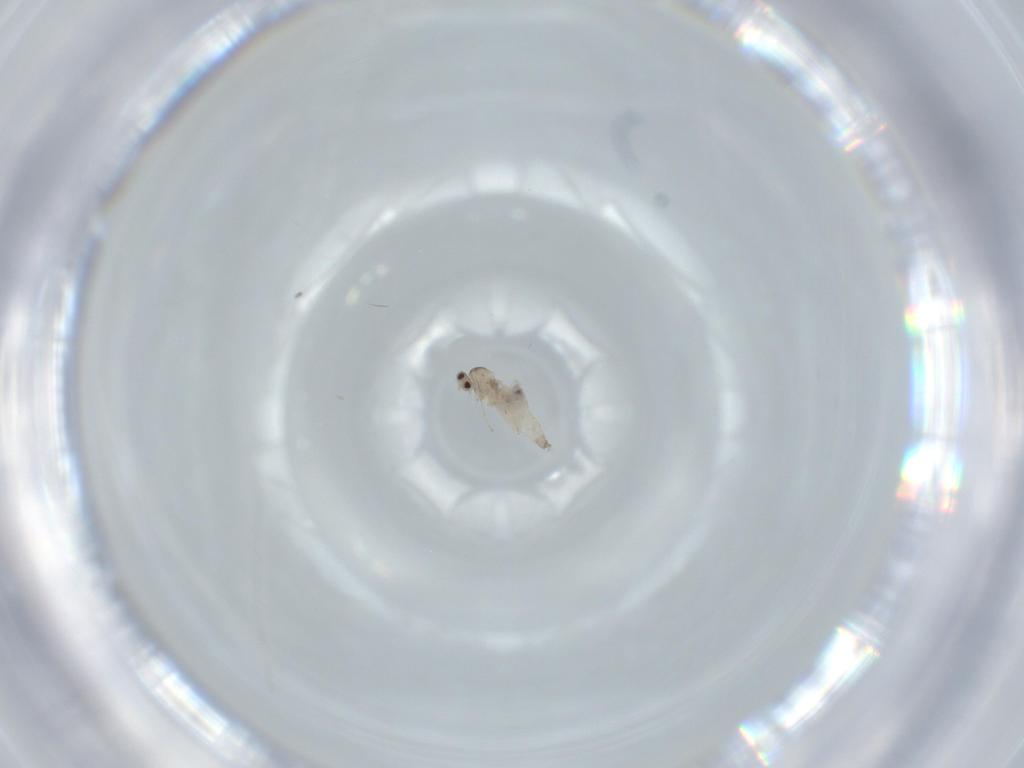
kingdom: Animalia
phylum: Arthropoda
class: Insecta
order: Diptera
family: Cecidomyiidae
